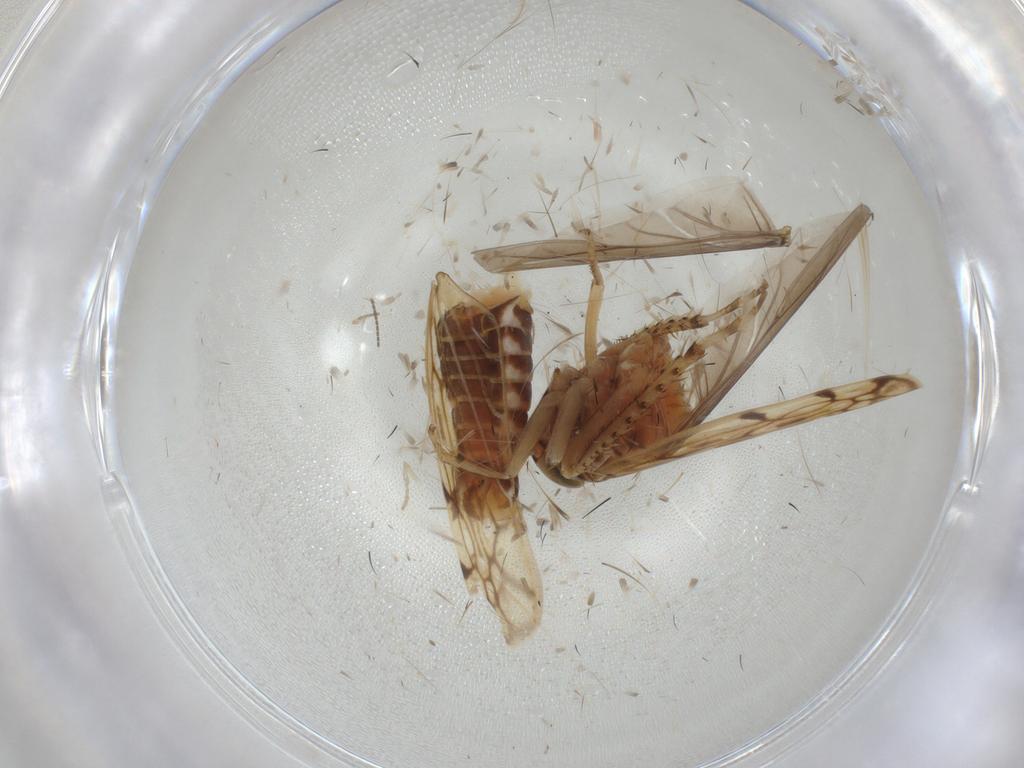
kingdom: Animalia
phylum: Arthropoda
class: Insecta
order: Hemiptera
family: Cicadellidae
